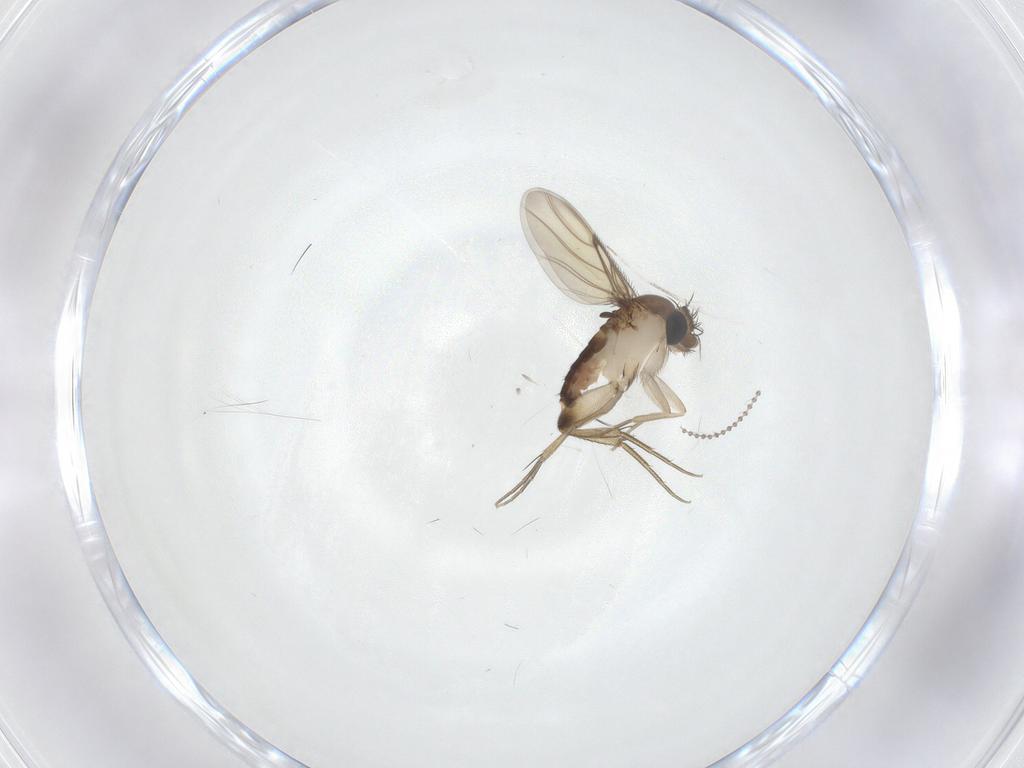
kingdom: Animalia
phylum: Arthropoda
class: Insecta
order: Diptera
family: Phoridae
